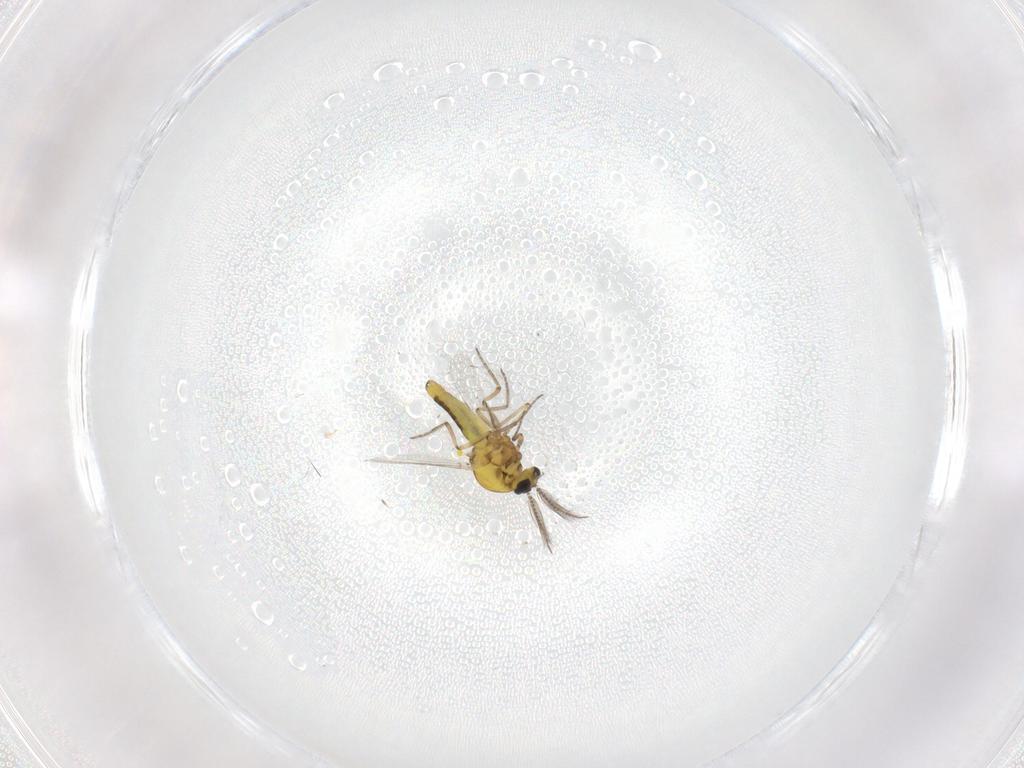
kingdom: Animalia
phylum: Arthropoda
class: Insecta
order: Diptera
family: Ceratopogonidae
